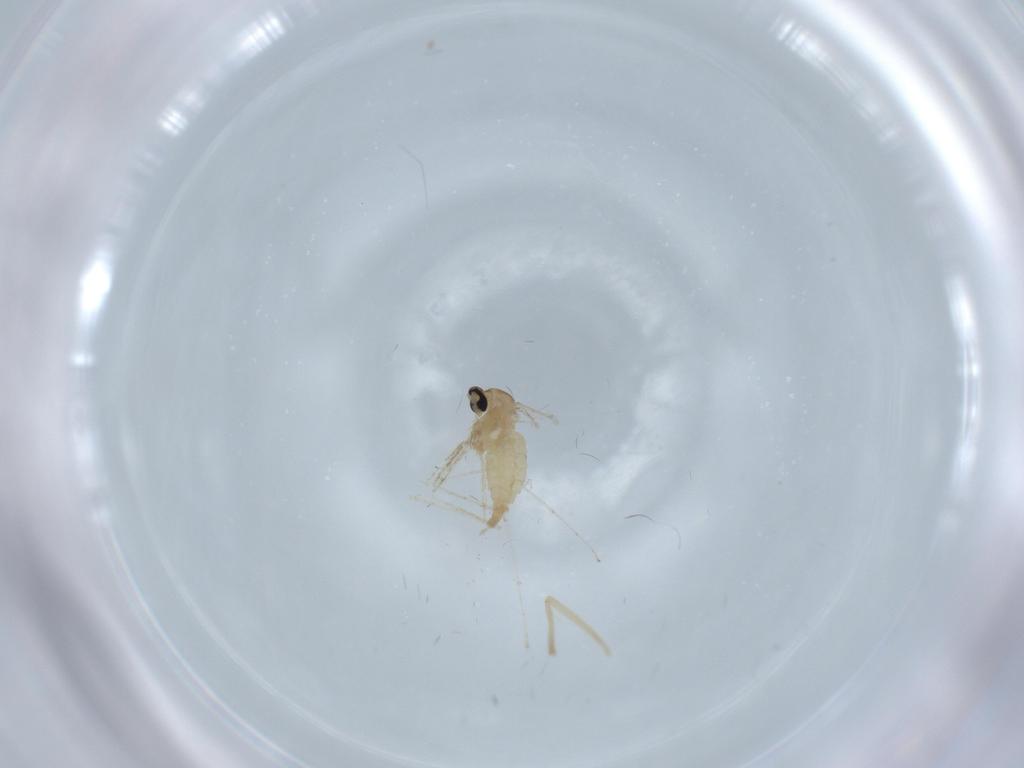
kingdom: Animalia
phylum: Arthropoda
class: Insecta
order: Diptera
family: Cecidomyiidae
